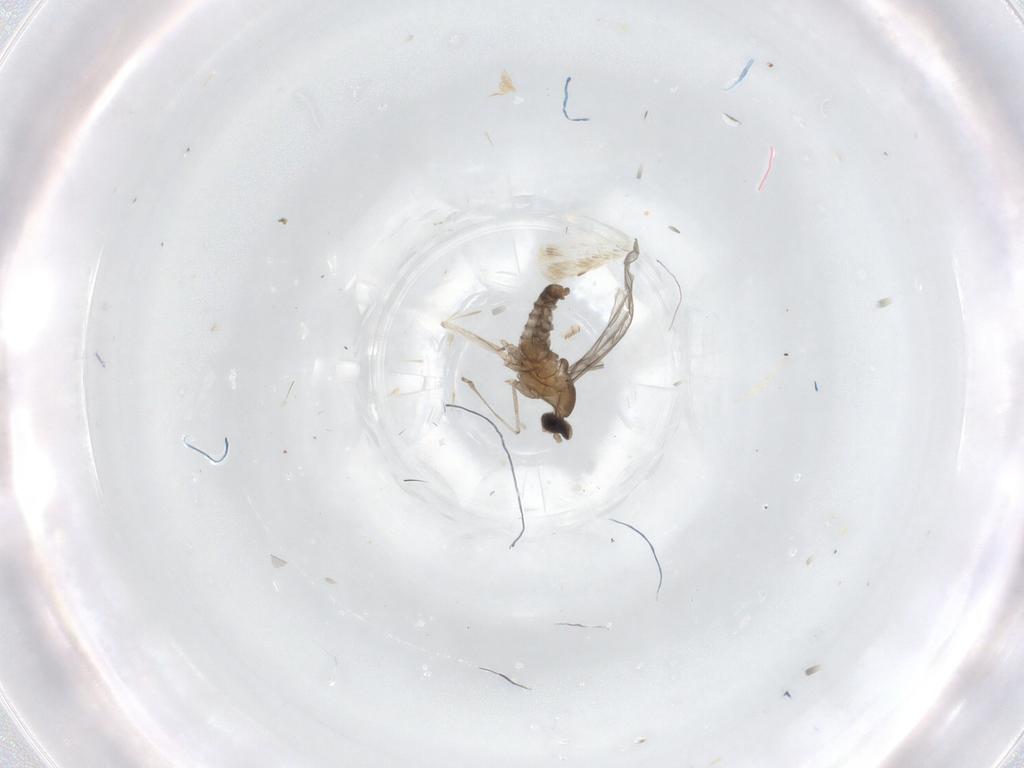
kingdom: Animalia
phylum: Arthropoda
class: Insecta
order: Diptera
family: Cecidomyiidae
